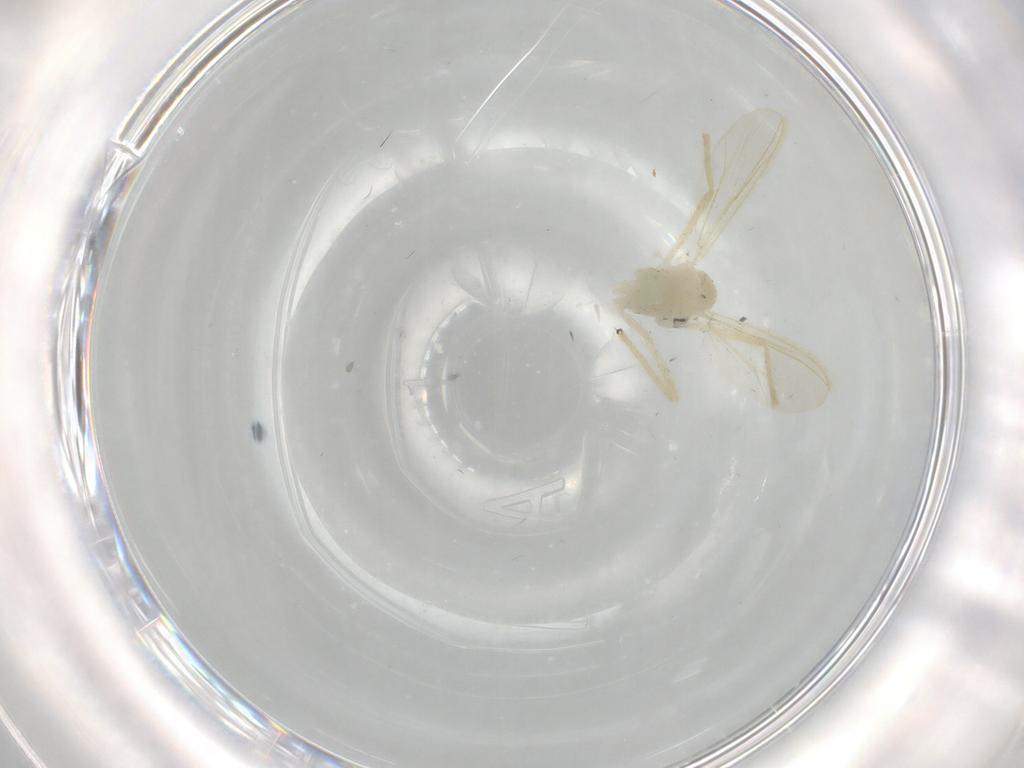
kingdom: Animalia
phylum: Arthropoda
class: Insecta
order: Diptera
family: Chironomidae
